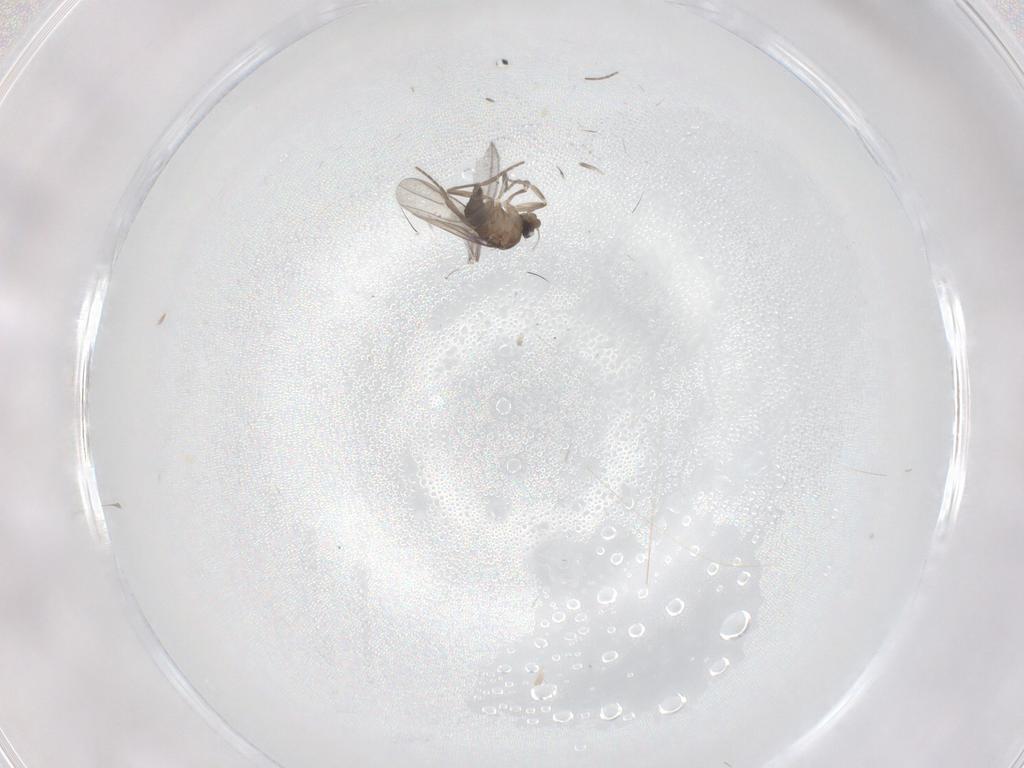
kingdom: Animalia
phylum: Arthropoda
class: Insecta
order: Diptera
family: Sciaridae
